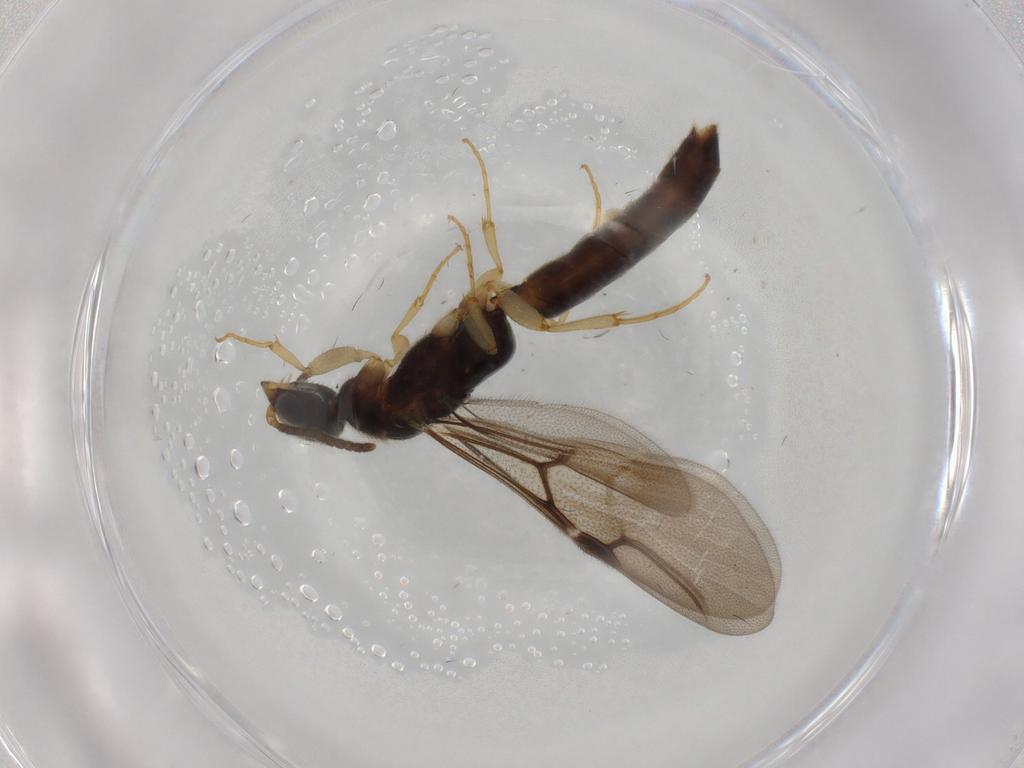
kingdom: Animalia
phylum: Arthropoda
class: Insecta
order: Hymenoptera
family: Bethylidae
